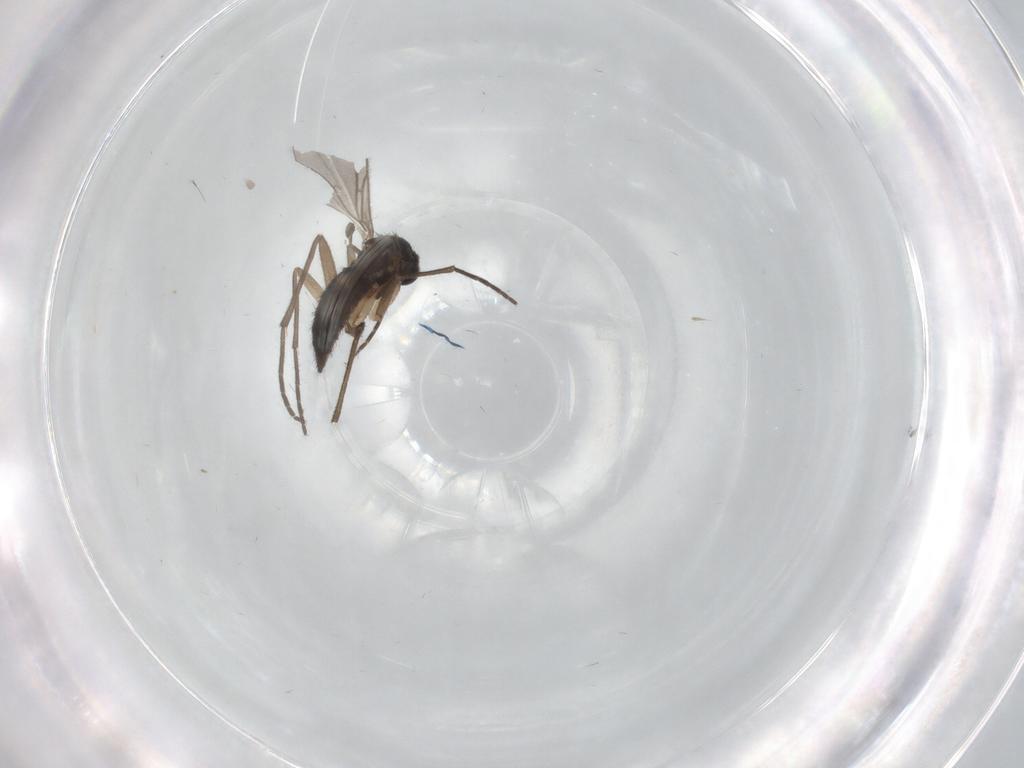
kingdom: Animalia
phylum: Arthropoda
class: Insecta
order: Diptera
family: Sciaridae
